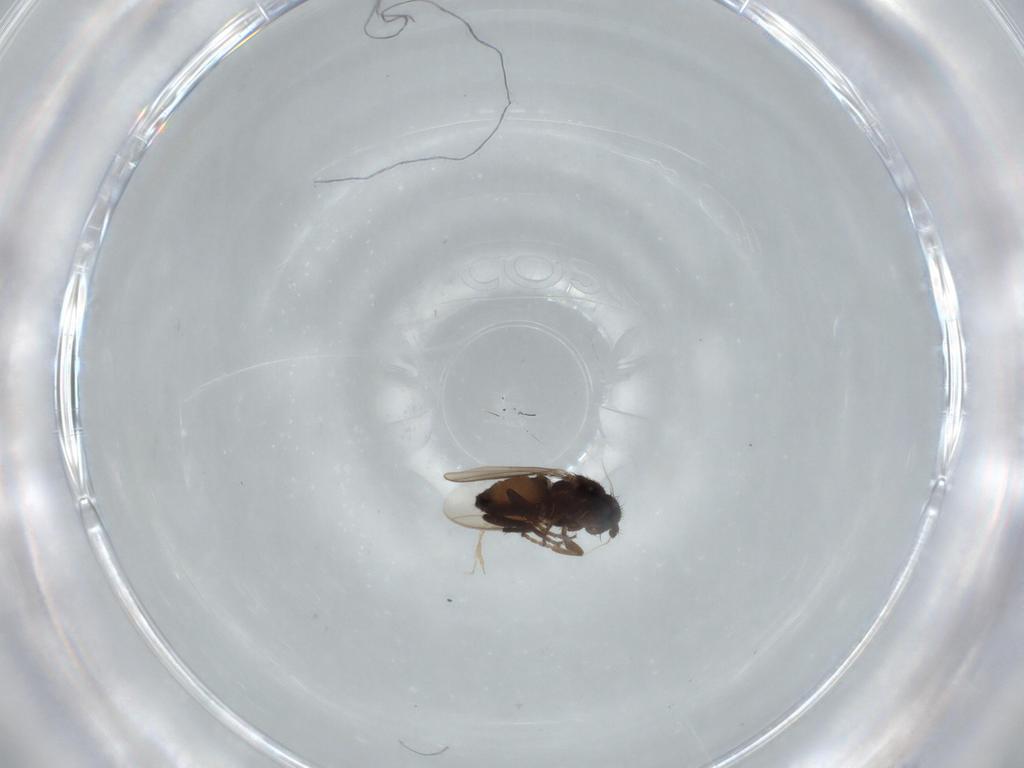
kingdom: Animalia
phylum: Arthropoda
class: Insecta
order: Diptera
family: Sphaeroceridae
